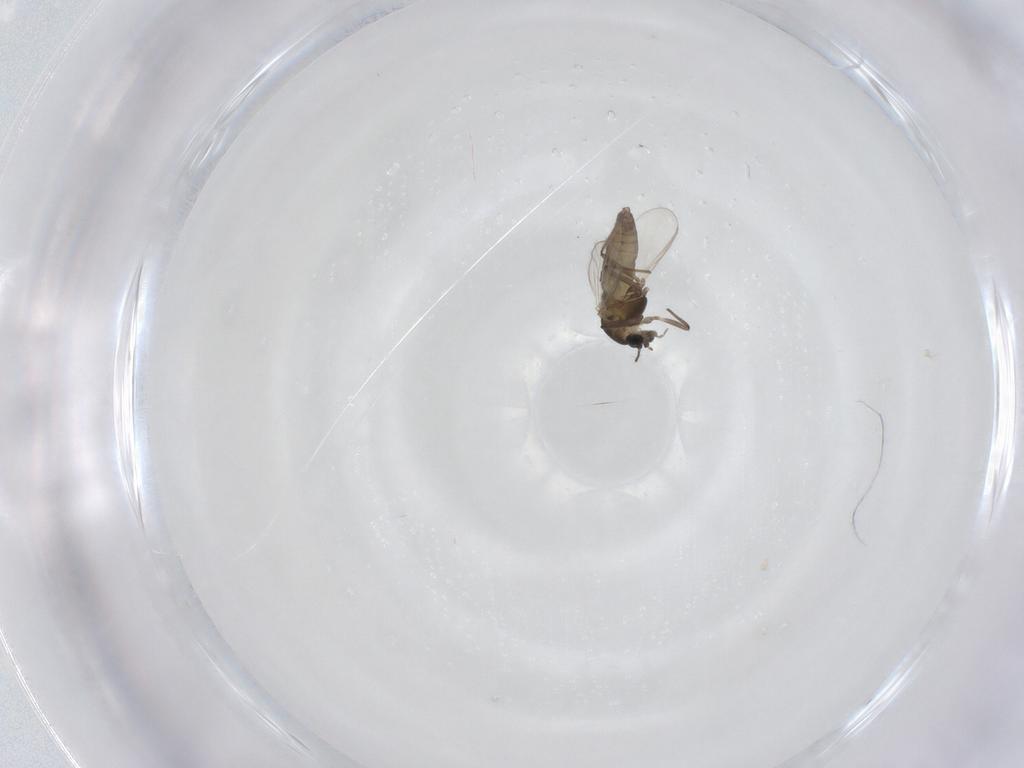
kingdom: Animalia
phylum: Arthropoda
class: Insecta
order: Diptera
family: Chironomidae
